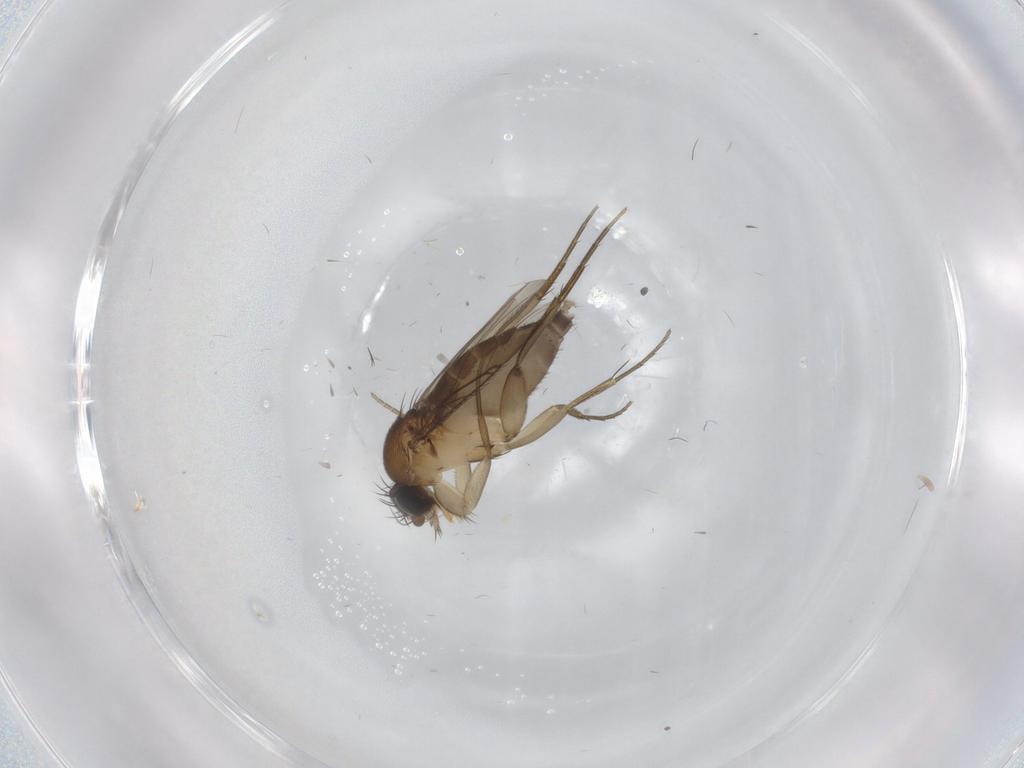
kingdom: Animalia
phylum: Arthropoda
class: Insecta
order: Diptera
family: Phoridae
